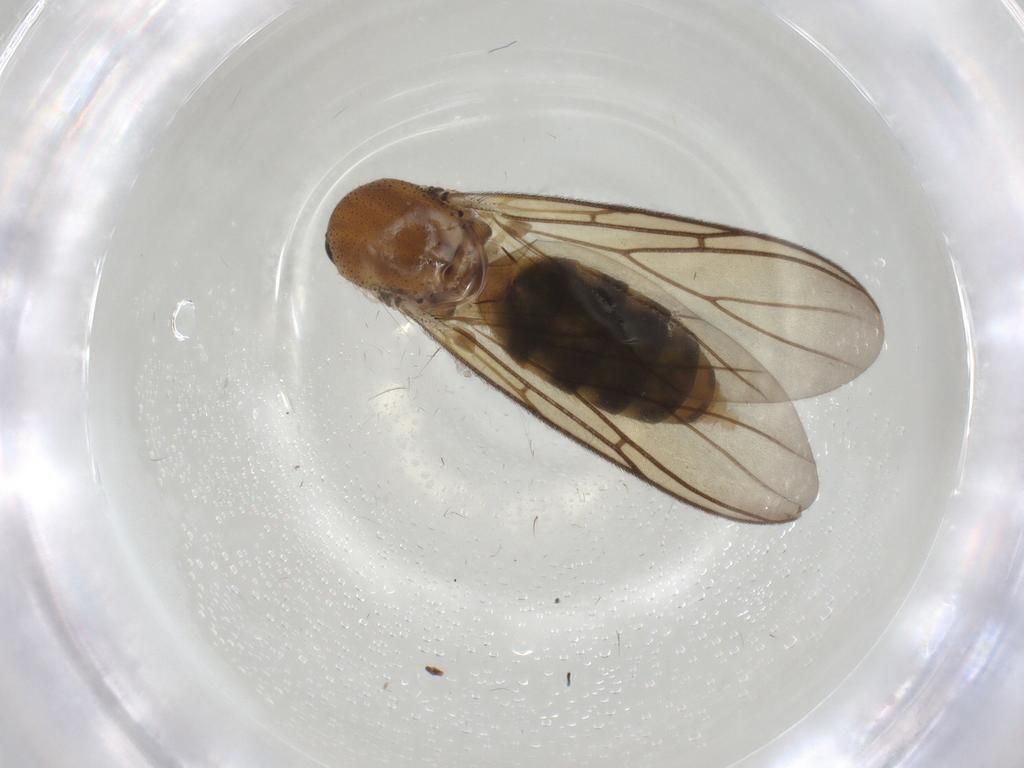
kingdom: Animalia
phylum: Arthropoda
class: Insecta
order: Diptera
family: Mycetophilidae
